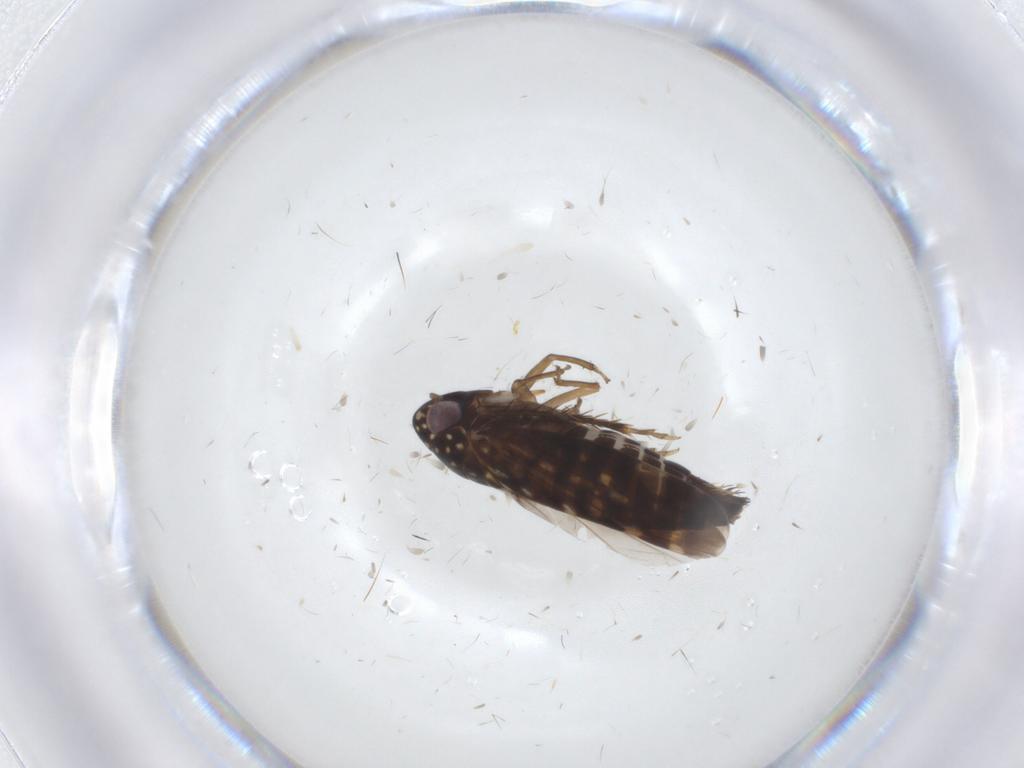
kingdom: Animalia
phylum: Arthropoda
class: Insecta
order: Hemiptera
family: Cicadellidae
